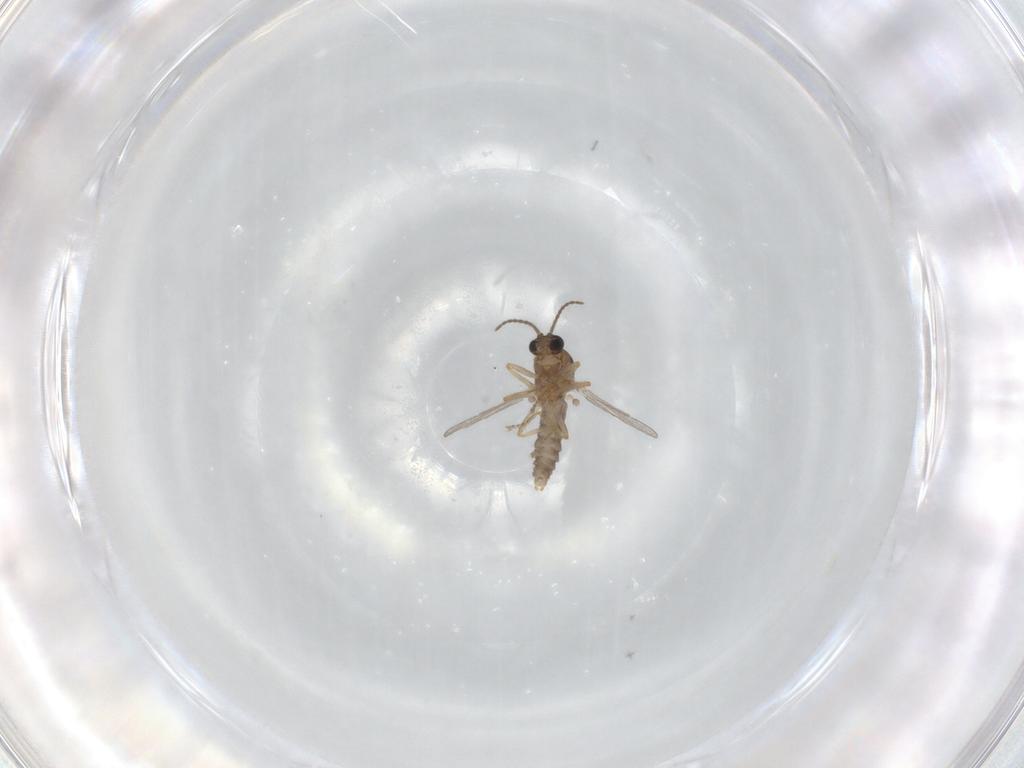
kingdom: Animalia
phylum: Arthropoda
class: Insecta
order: Diptera
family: Ceratopogonidae
